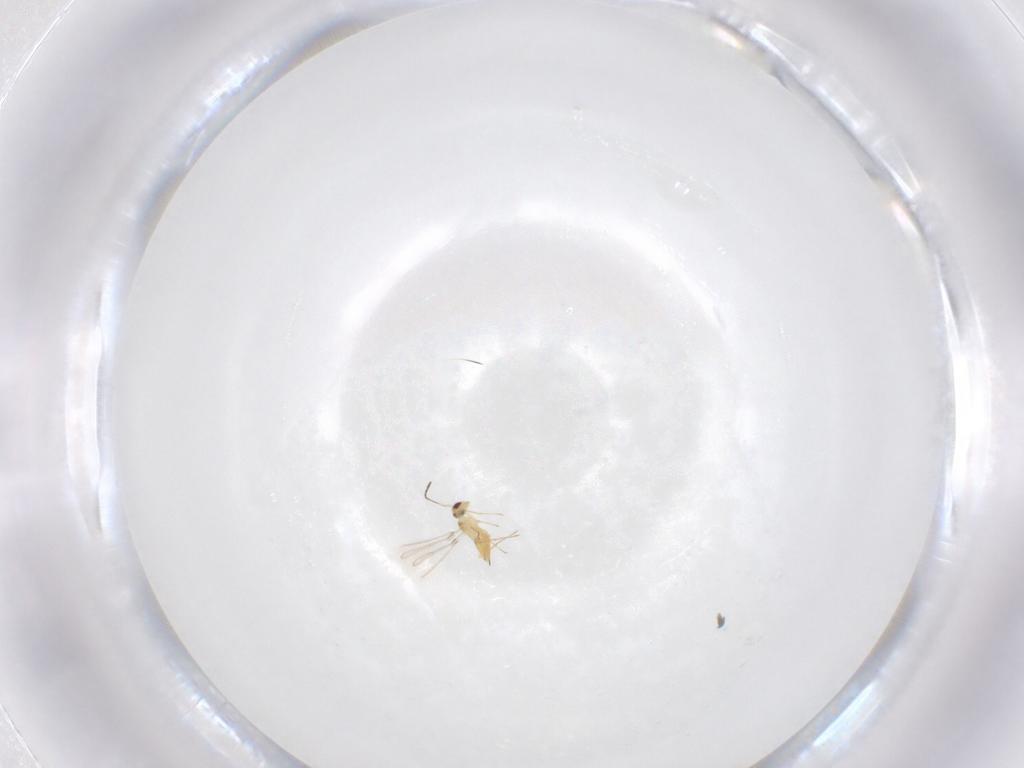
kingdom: Animalia
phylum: Arthropoda
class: Insecta
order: Hymenoptera
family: Mymaridae
